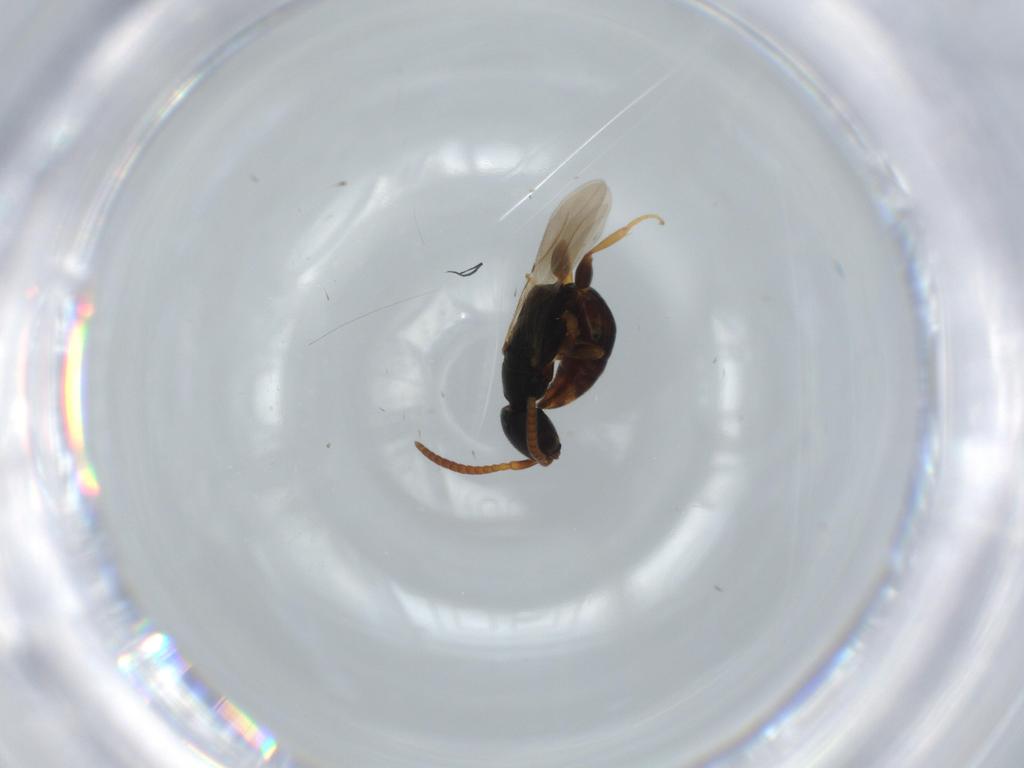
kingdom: Animalia
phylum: Arthropoda
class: Insecta
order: Hymenoptera
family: Bethylidae
